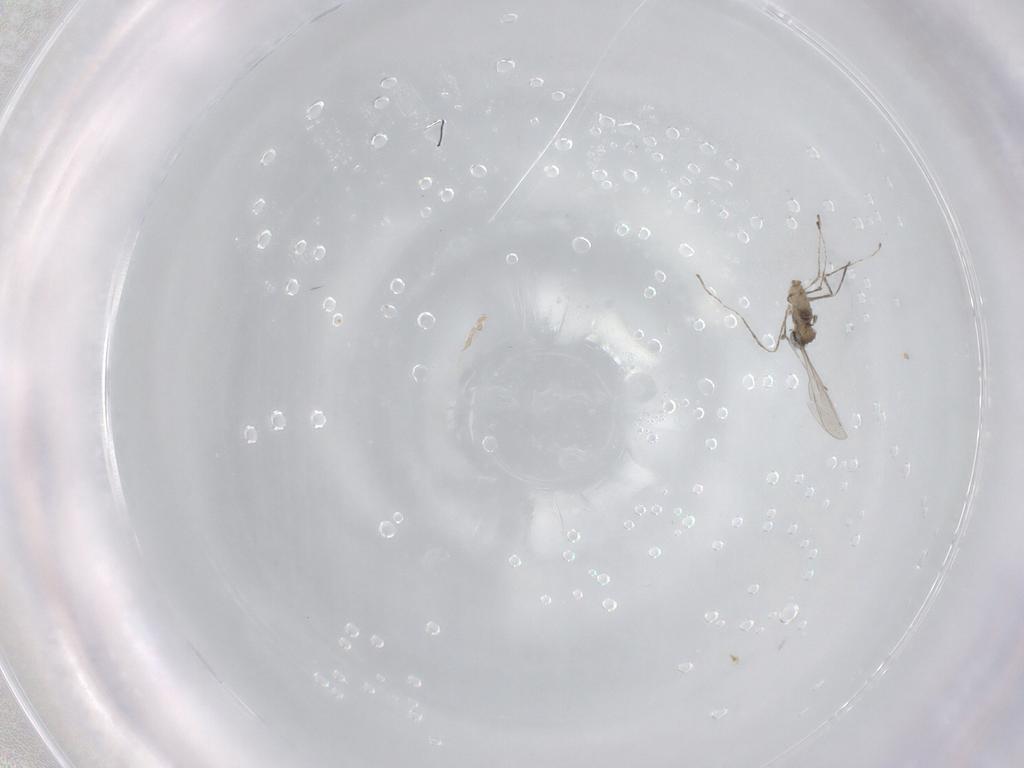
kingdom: Animalia
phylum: Arthropoda
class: Insecta
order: Diptera
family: Cecidomyiidae
